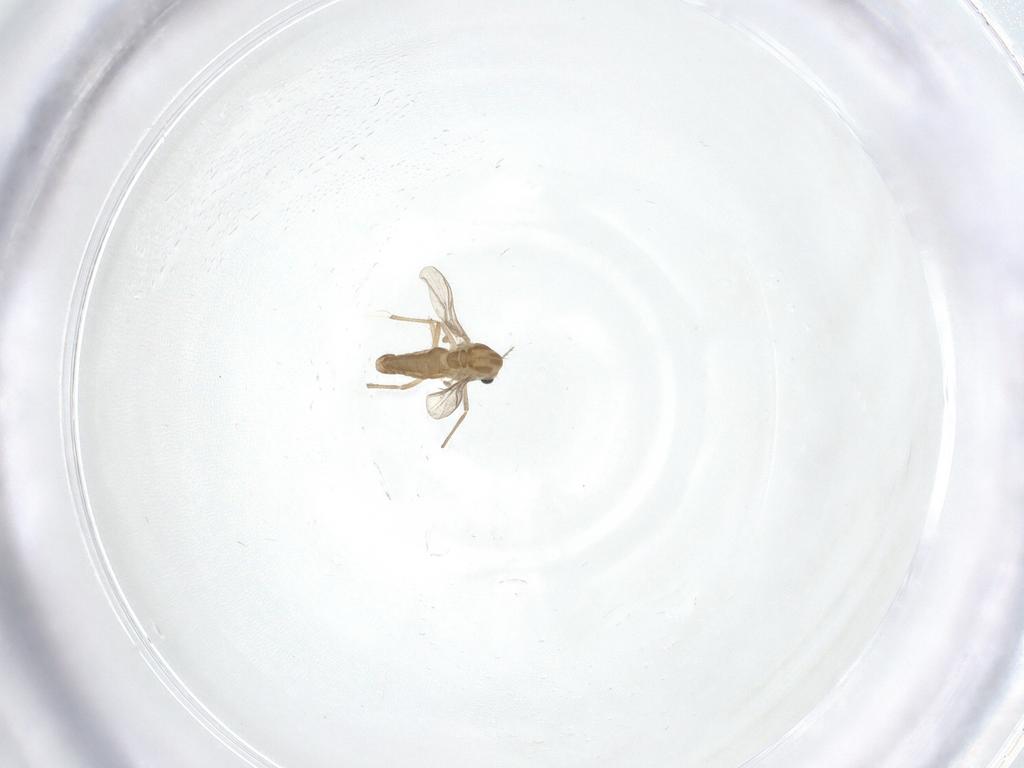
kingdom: Animalia
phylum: Arthropoda
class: Insecta
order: Diptera
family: Chironomidae
